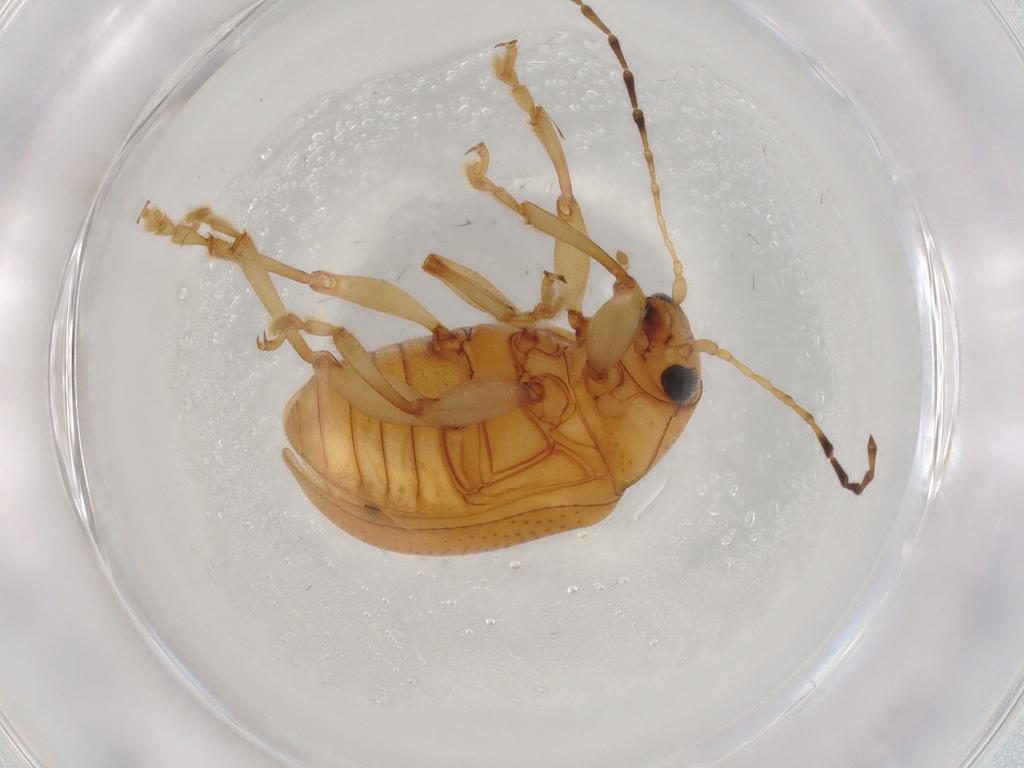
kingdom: Animalia
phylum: Arthropoda
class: Insecta
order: Coleoptera
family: Chrysomelidae
